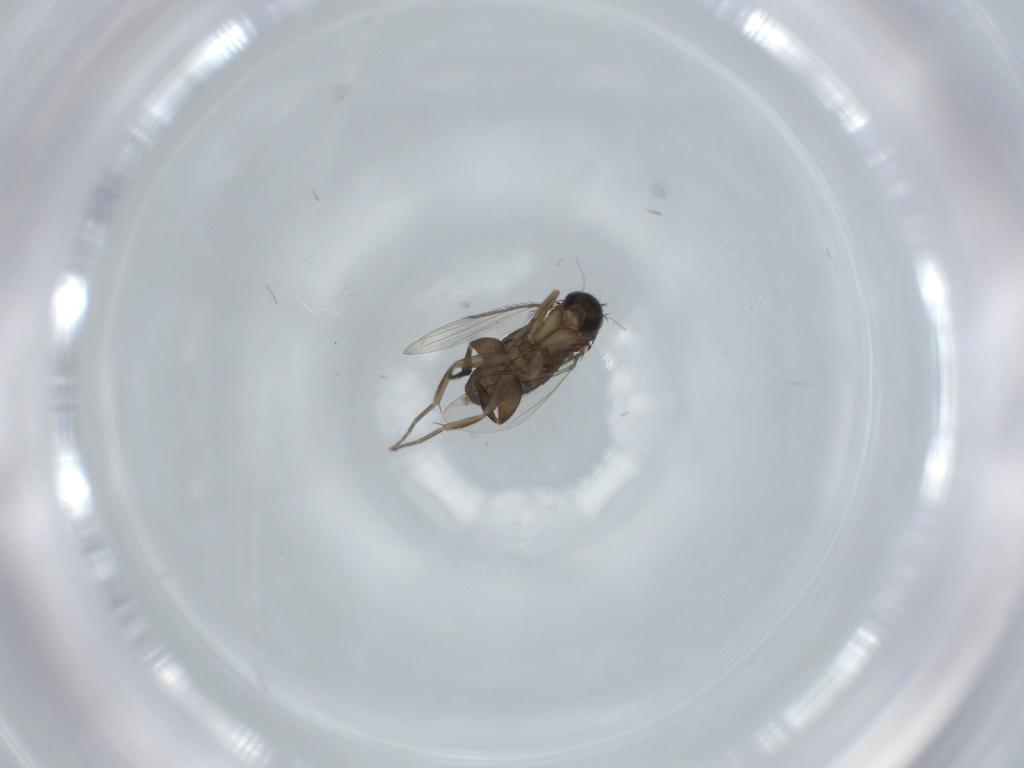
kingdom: Animalia
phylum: Arthropoda
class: Insecta
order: Diptera
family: Phoridae
